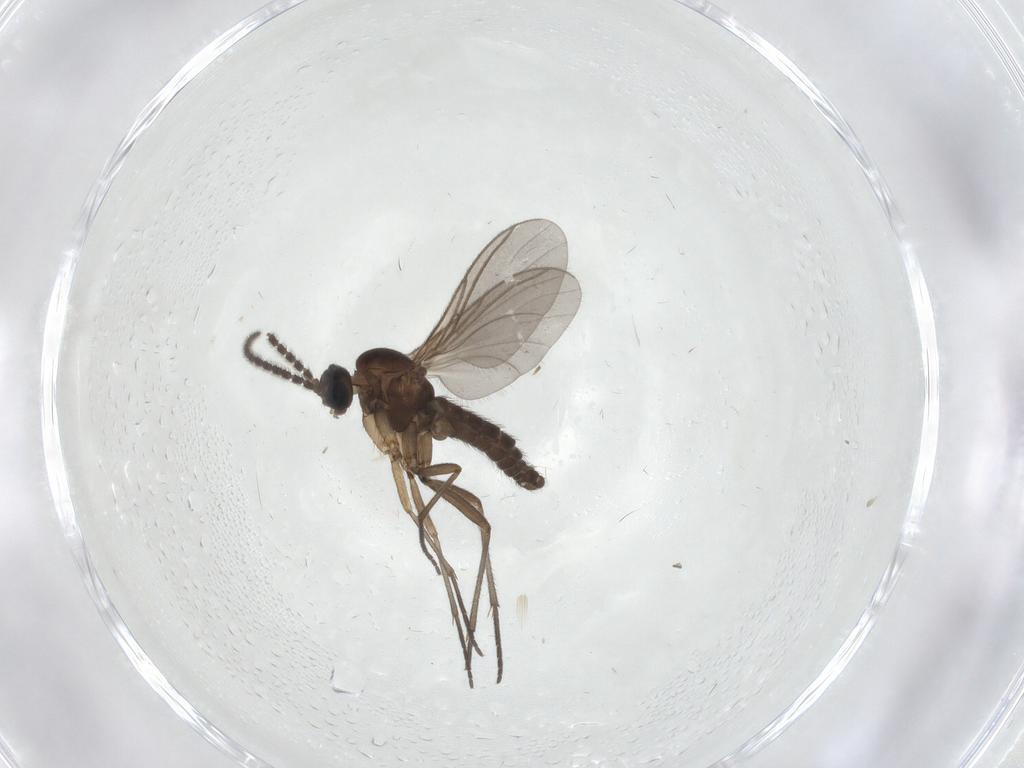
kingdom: Animalia
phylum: Arthropoda
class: Insecta
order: Diptera
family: Sciaridae
